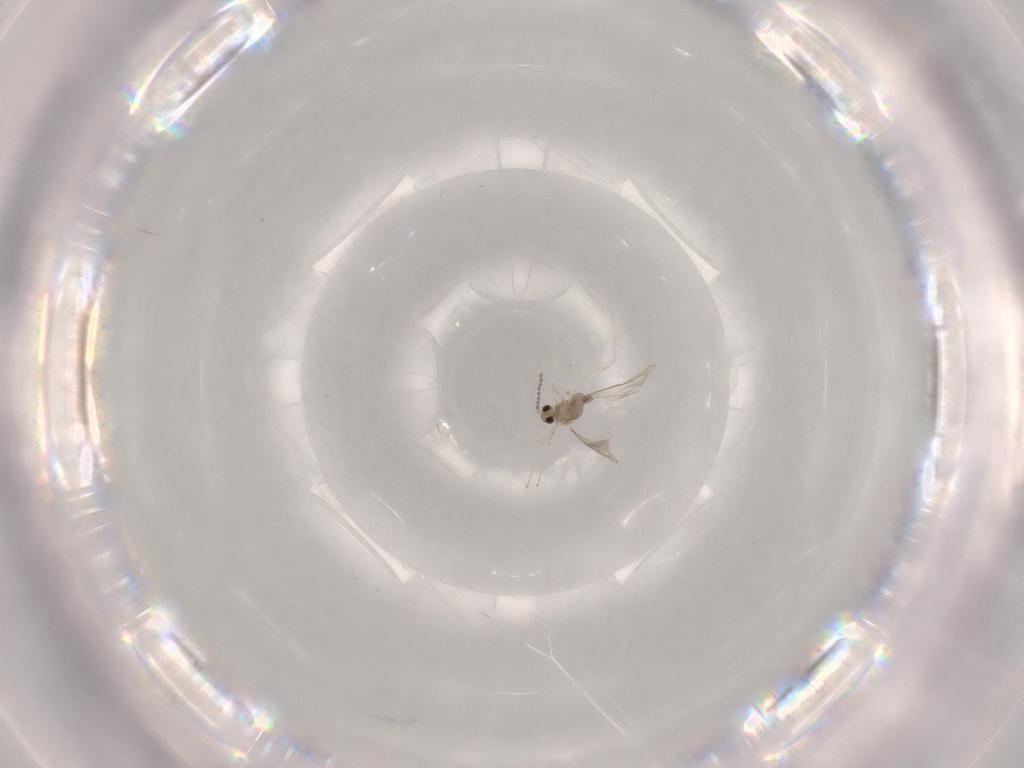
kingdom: Animalia
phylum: Arthropoda
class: Insecta
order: Diptera
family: Cecidomyiidae
